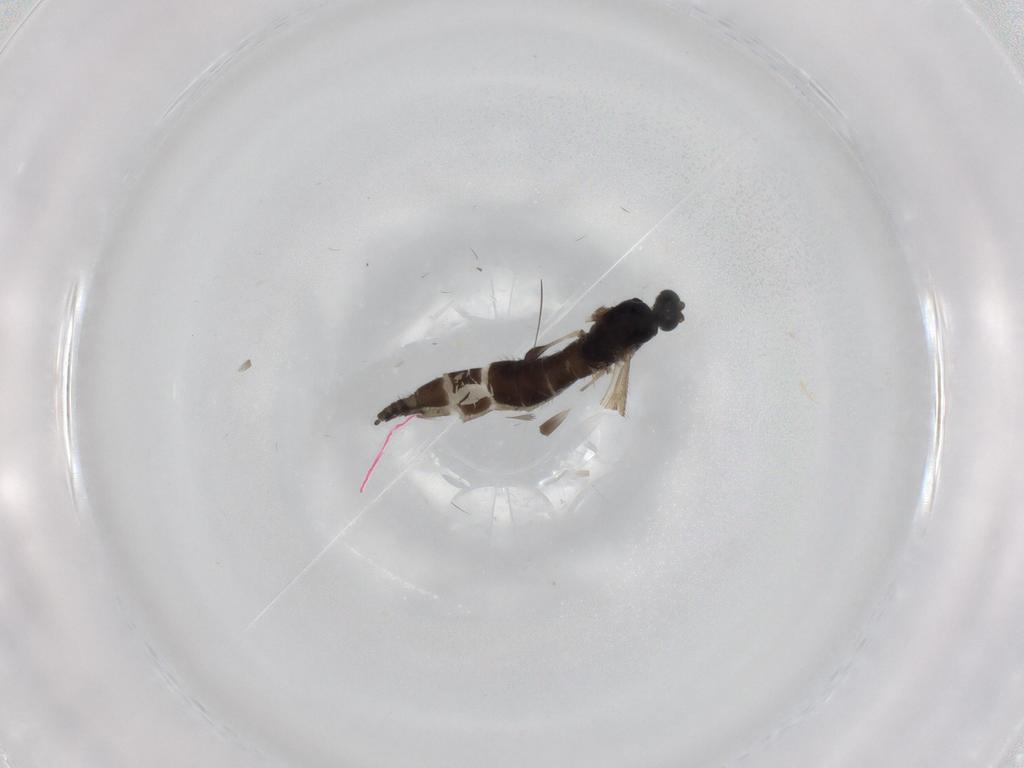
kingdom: Animalia
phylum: Arthropoda
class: Insecta
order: Diptera
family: Sciaridae
